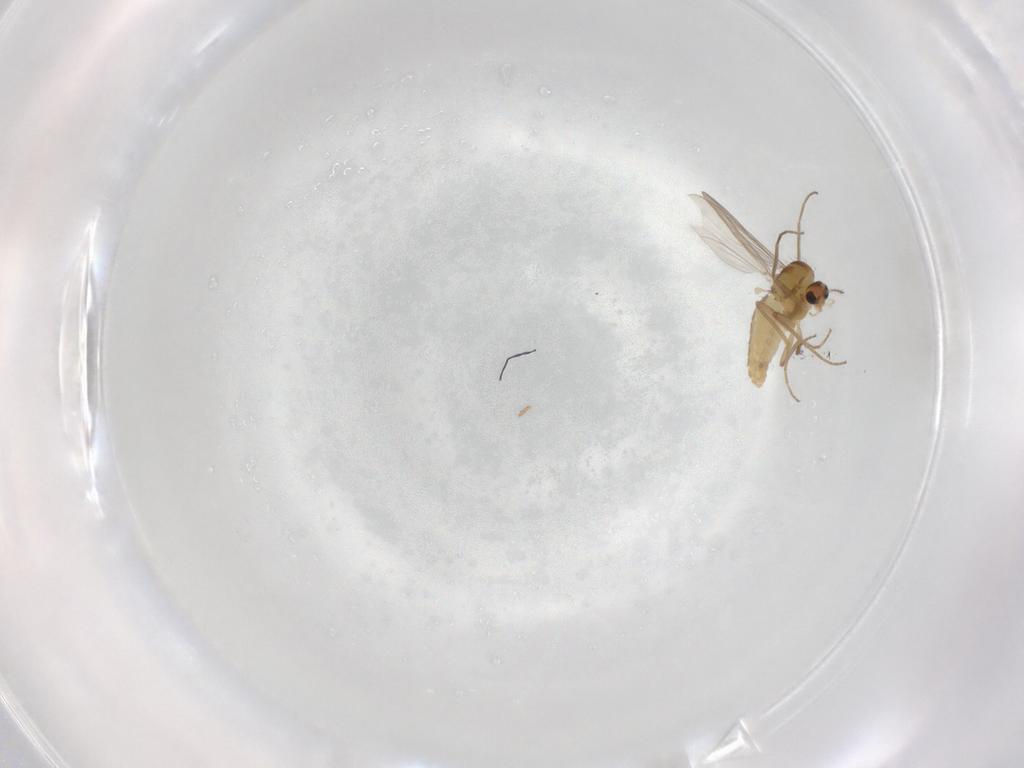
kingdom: Animalia
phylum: Arthropoda
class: Insecta
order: Diptera
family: Chironomidae
